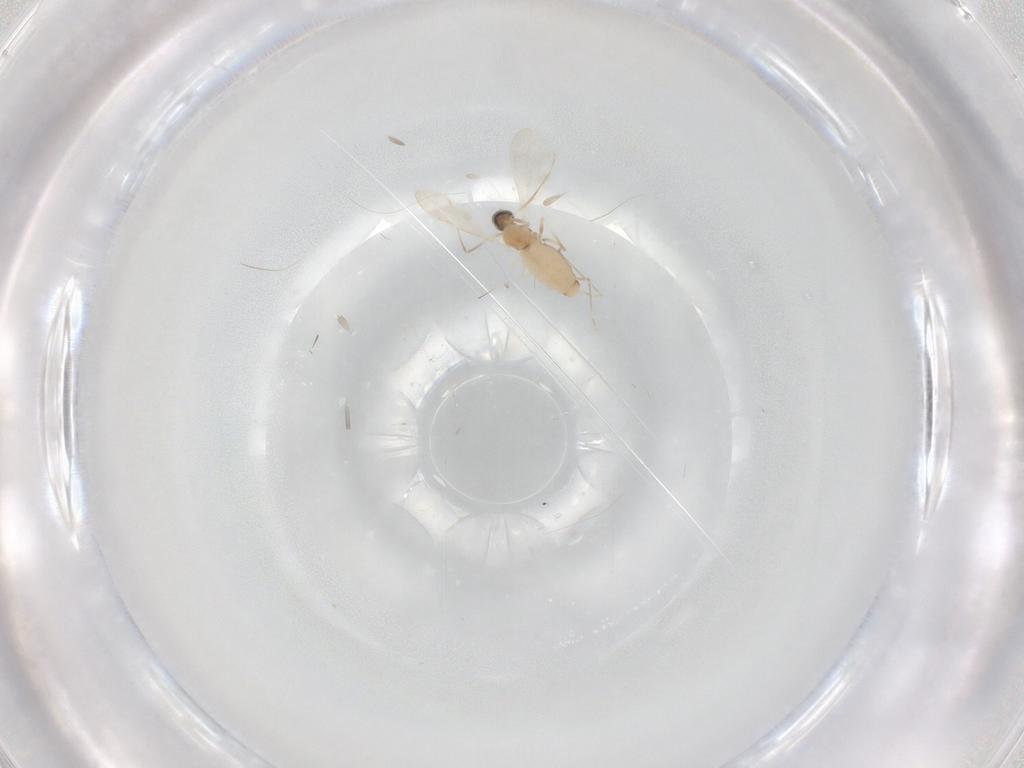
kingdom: Animalia
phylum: Arthropoda
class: Insecta
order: Diptera
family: Cecidomyiidae
